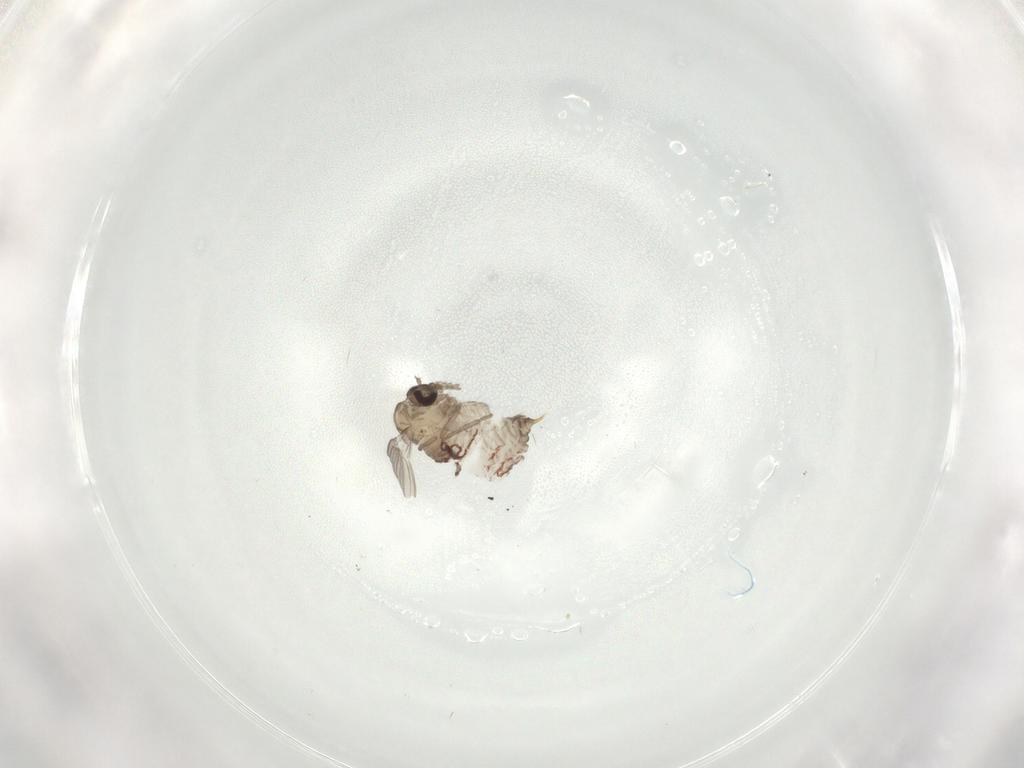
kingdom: Animalia
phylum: Arthropoda
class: Insecta
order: Diptera
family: Psychodidae
